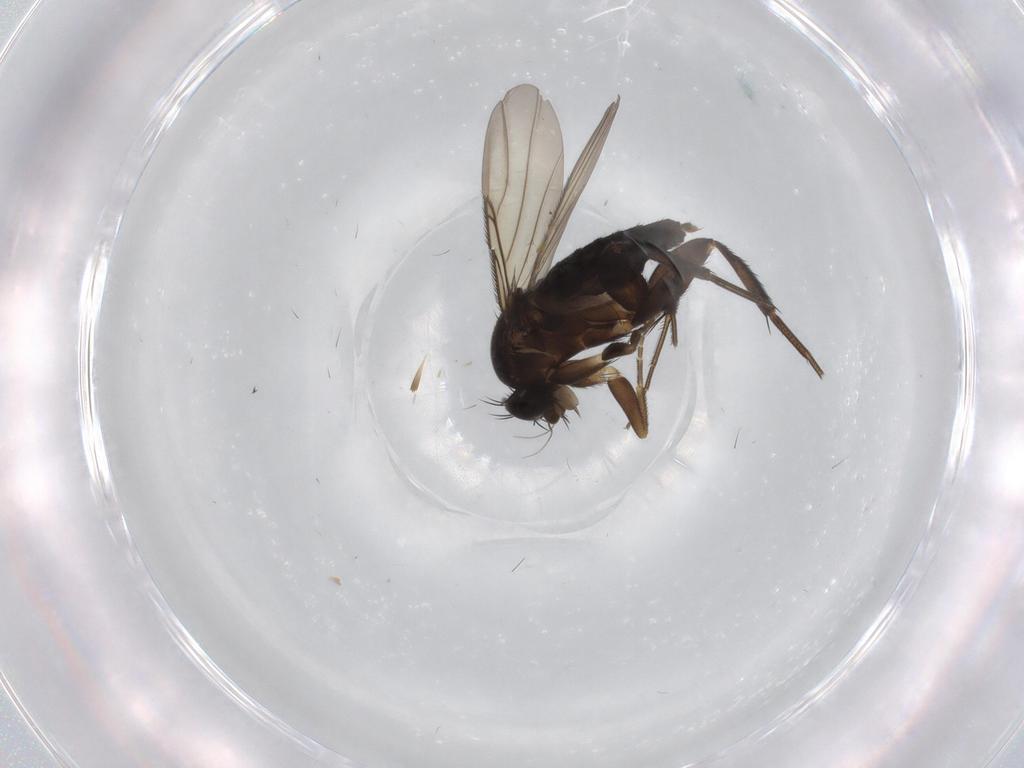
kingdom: Animalia
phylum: Arthropoda
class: Insecta
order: Diptera
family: Phoridae
